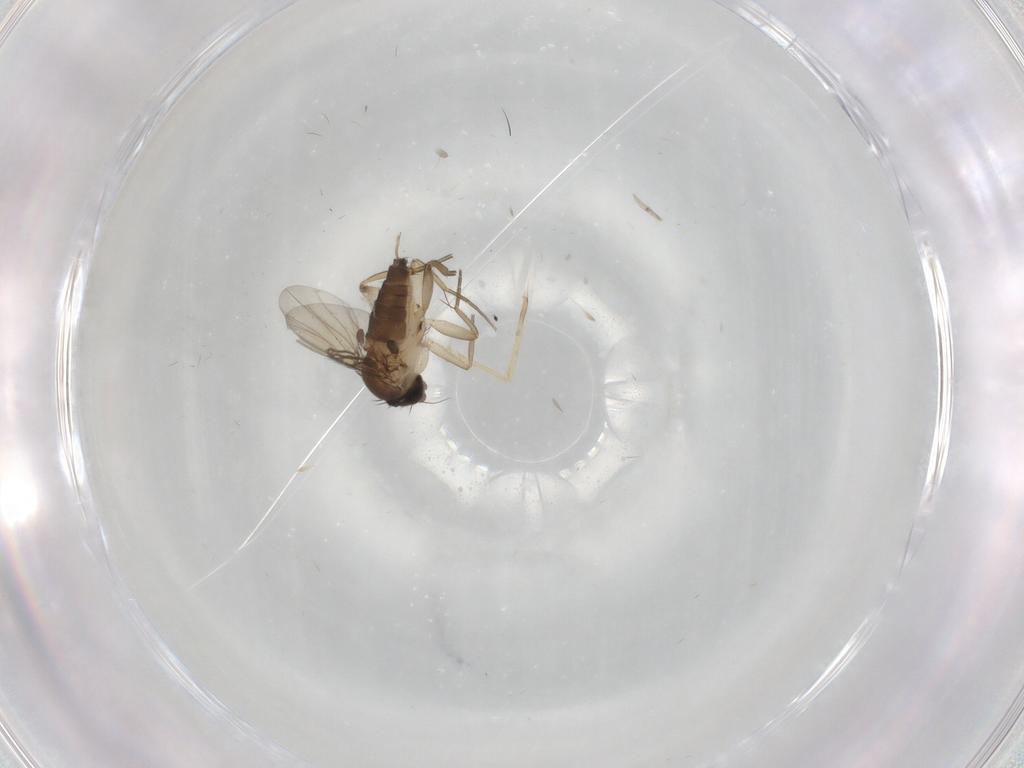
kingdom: Animalia
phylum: Arthropoda
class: Insecta
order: Diptera
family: Phoridae
